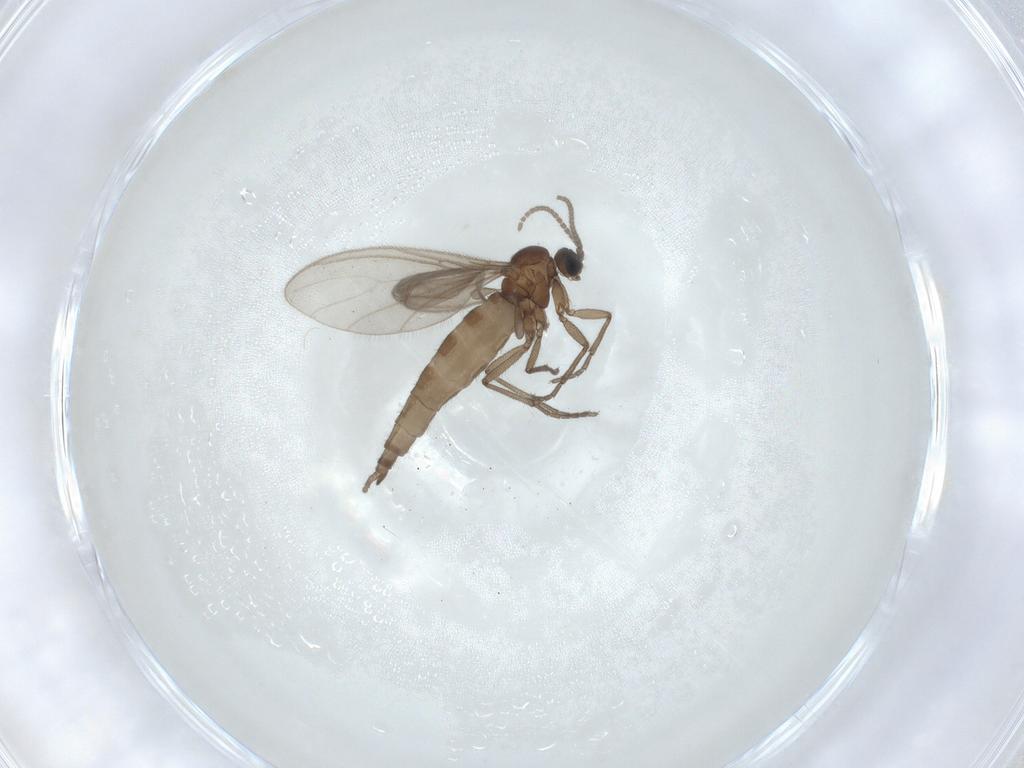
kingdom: Animalia
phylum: Arthropoda
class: Insecta
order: Diptera
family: Sciaridae
